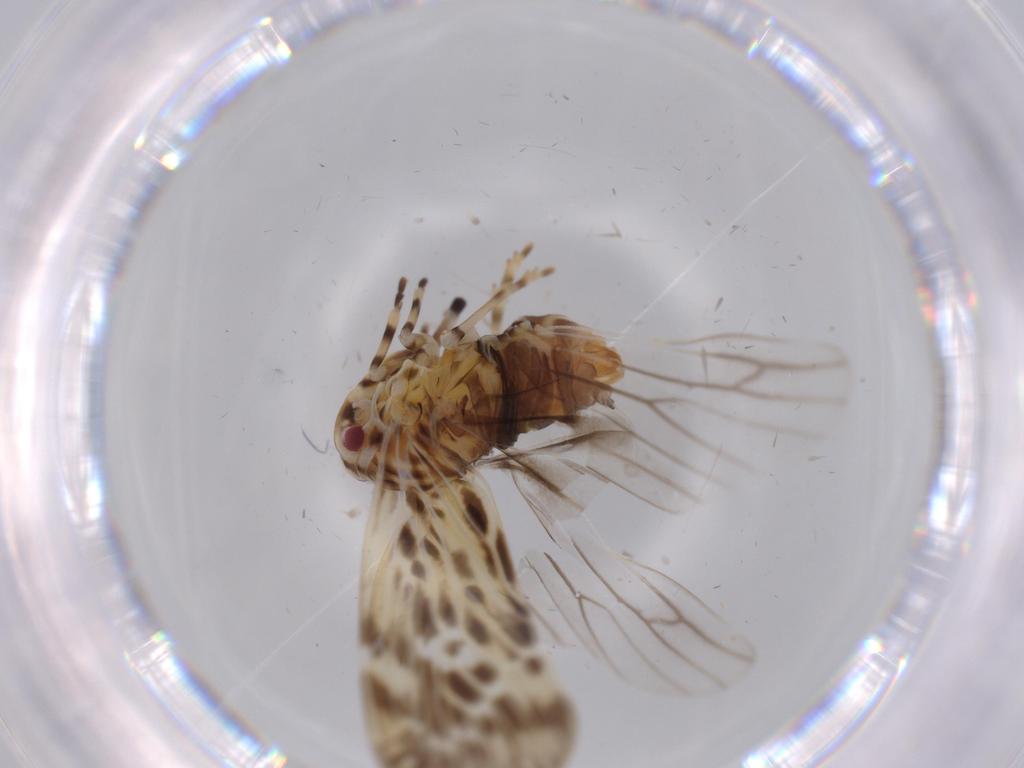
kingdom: Animalia
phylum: Arthropoda
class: Insecta
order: Hemiptera
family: Derbidae
